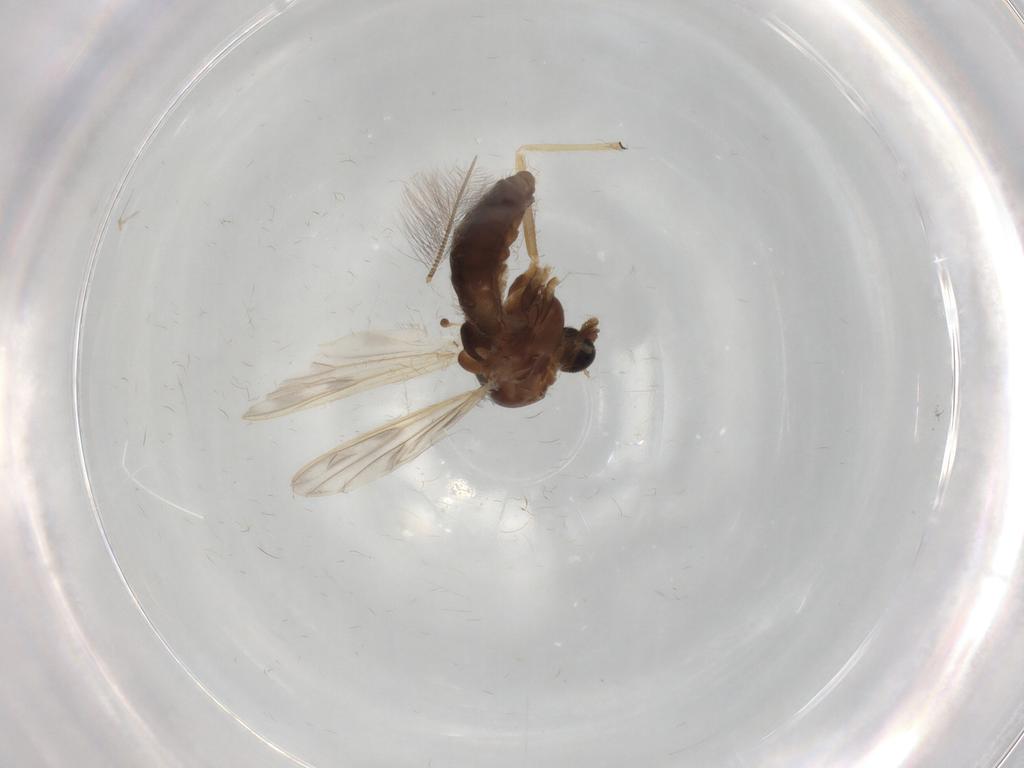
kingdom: Animalia
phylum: Arthropoda
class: Insecta
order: Diptera
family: Chironomidae
